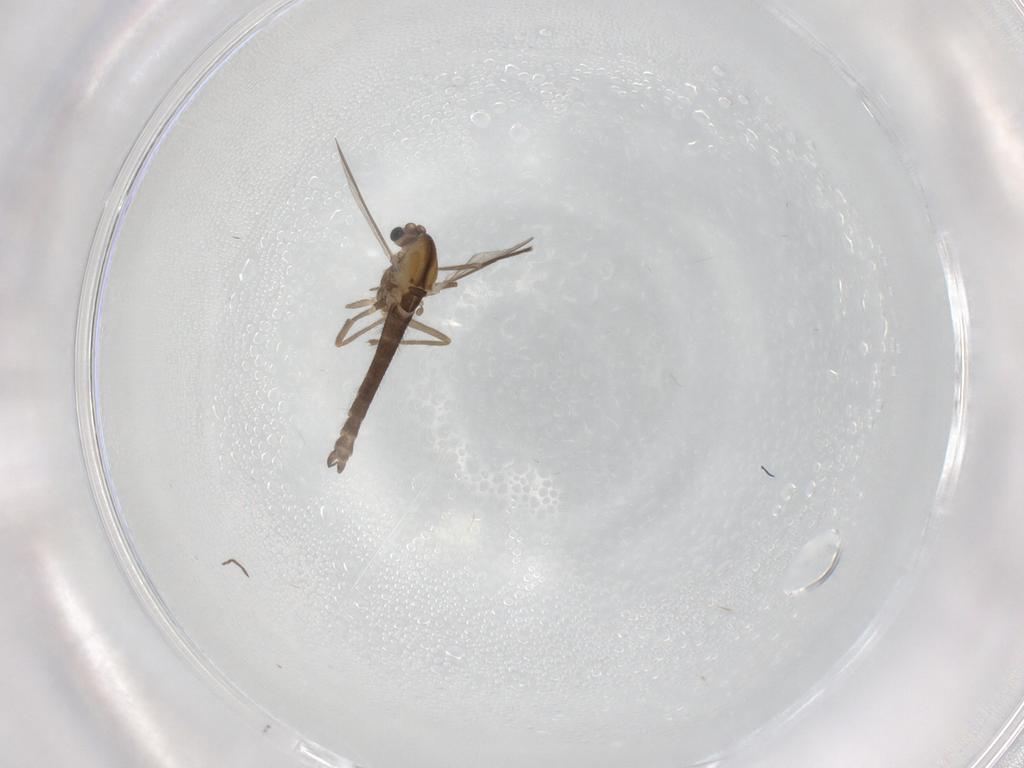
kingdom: Animalia
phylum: Arthropoda
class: Insecta
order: Diptera
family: Chironomidae
